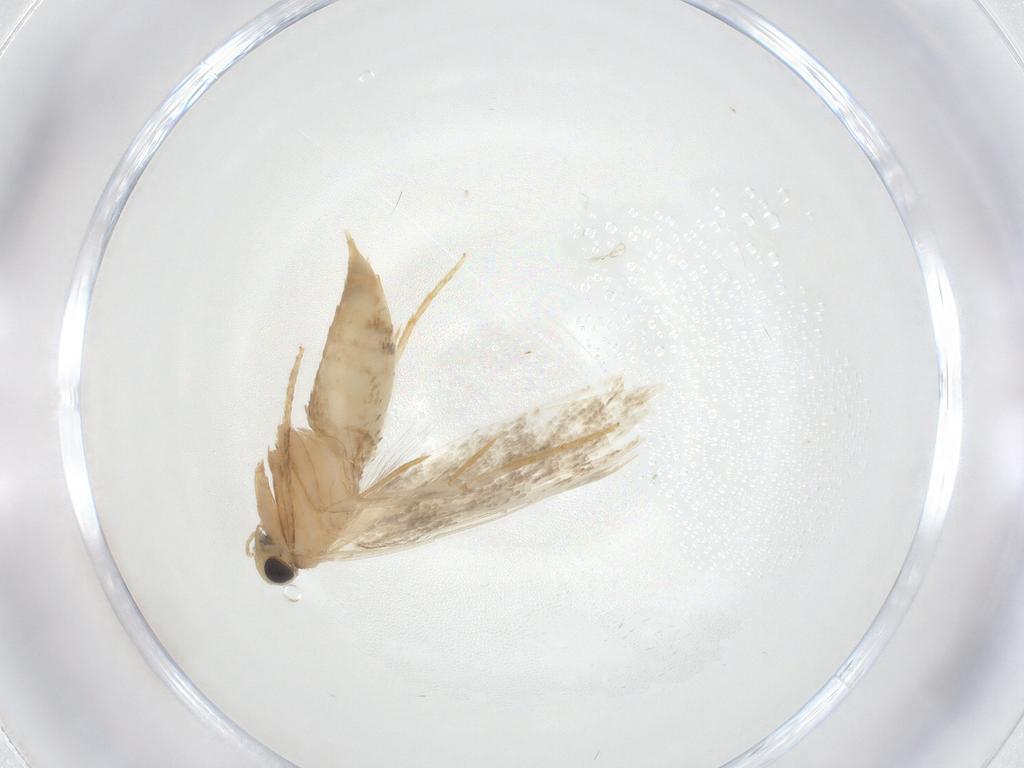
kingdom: Animalia
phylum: Arthropoda
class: Insecta
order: Lepidoptera
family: Tineidae
